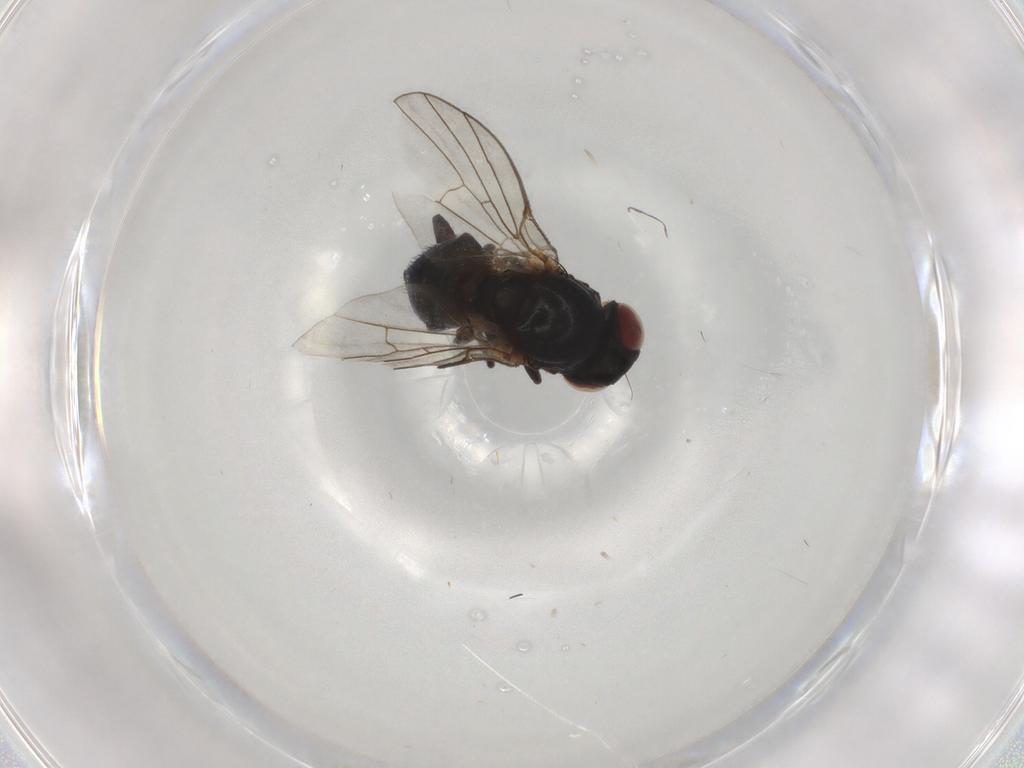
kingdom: Animalia
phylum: Arthropoda
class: Insecta
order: Diptera
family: Agromyzidae
